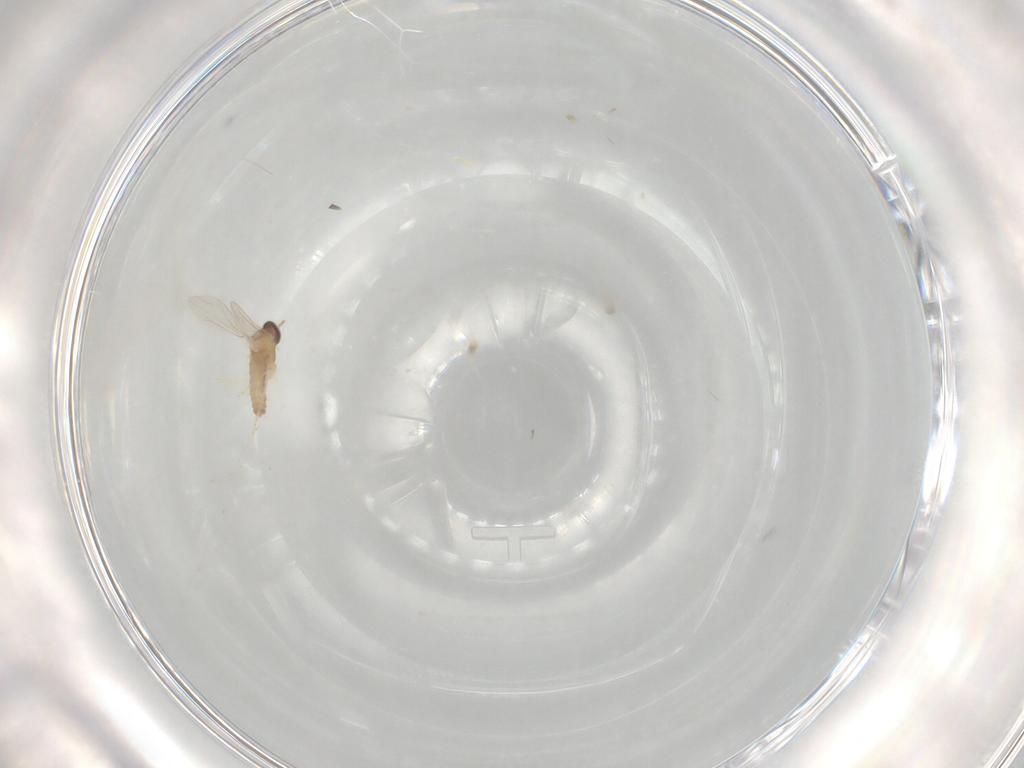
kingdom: Animalia
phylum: Arthropoda
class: Insecta
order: Diptera
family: Cecidomyiidae
